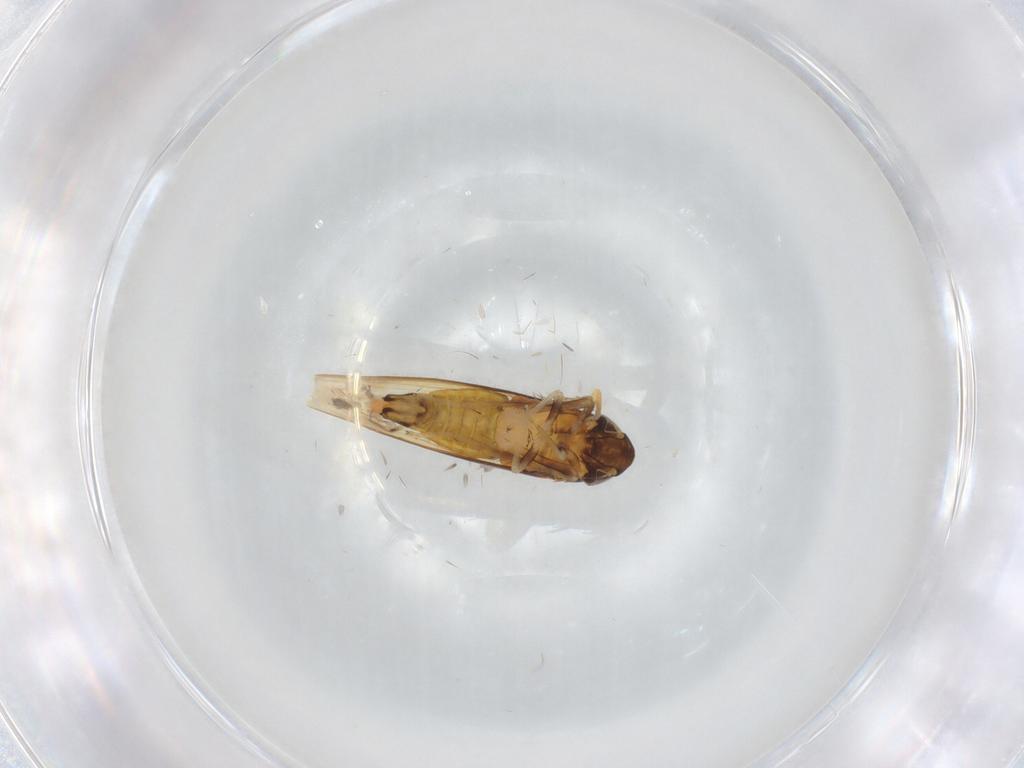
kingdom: Animalia
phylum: Arthropoda
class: Insecta
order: Hemiptera
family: Cicadellidae
